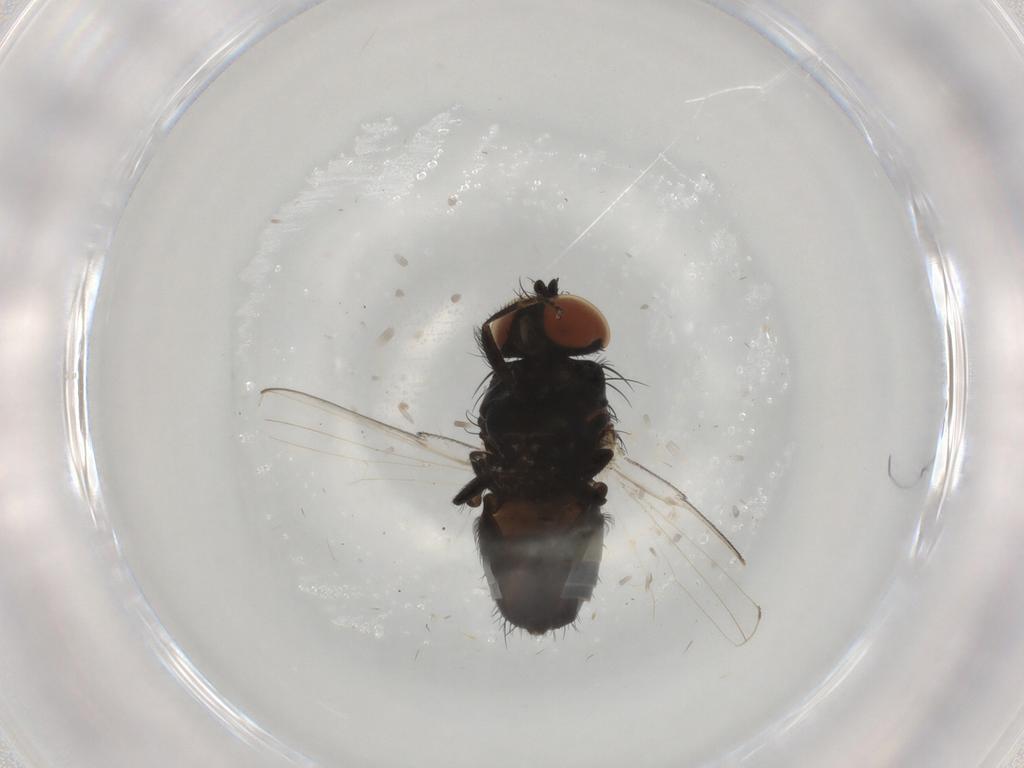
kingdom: Animalia
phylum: Arthropoda
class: Insecta
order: Diptera
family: Milichiidae
